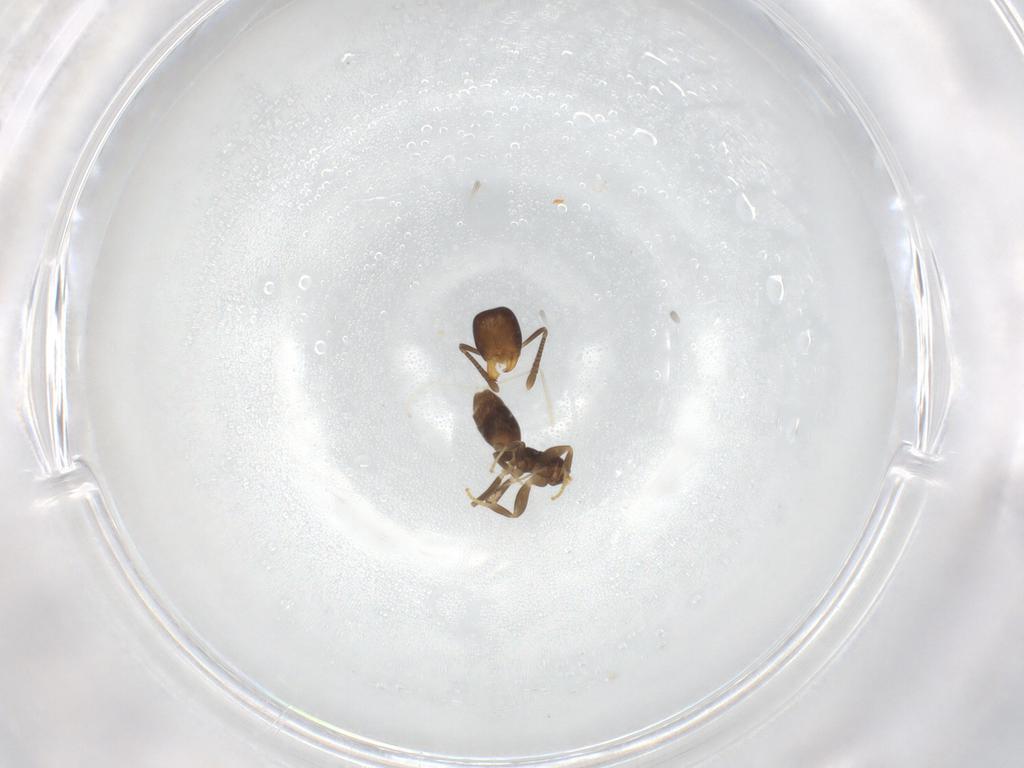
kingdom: Animalia
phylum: Arthropoda
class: Insecta
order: Hymenoptera
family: Formicidae
